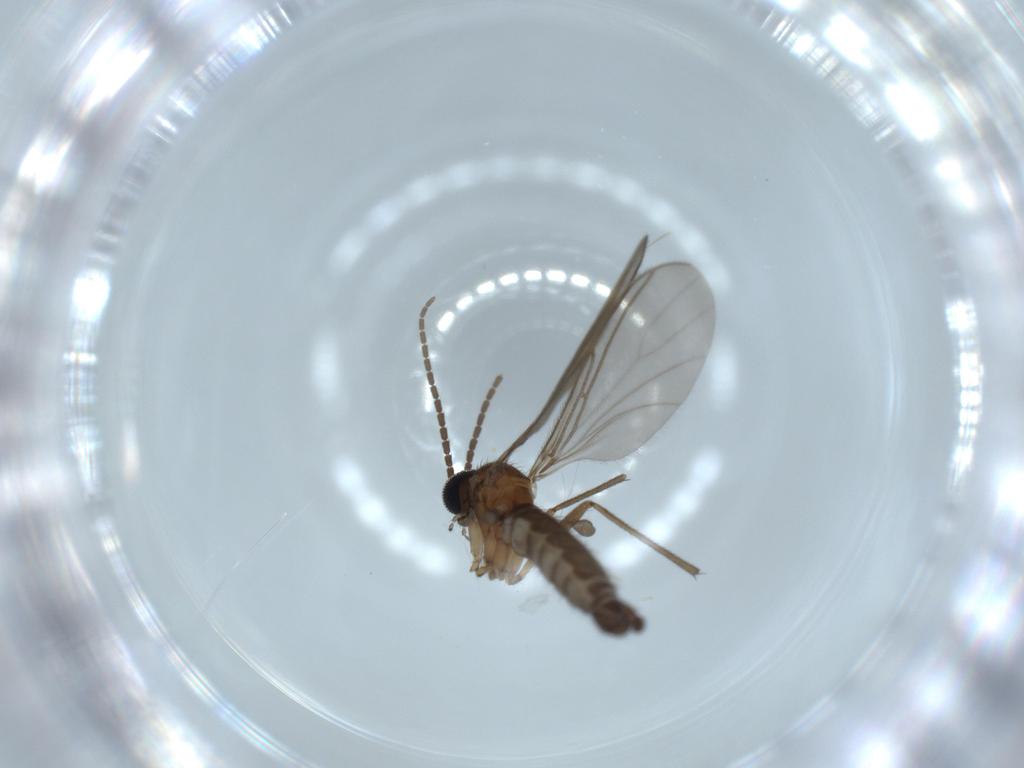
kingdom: Animalia
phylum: Arthropoda
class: Insecta
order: Diptera
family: Sciaridae
